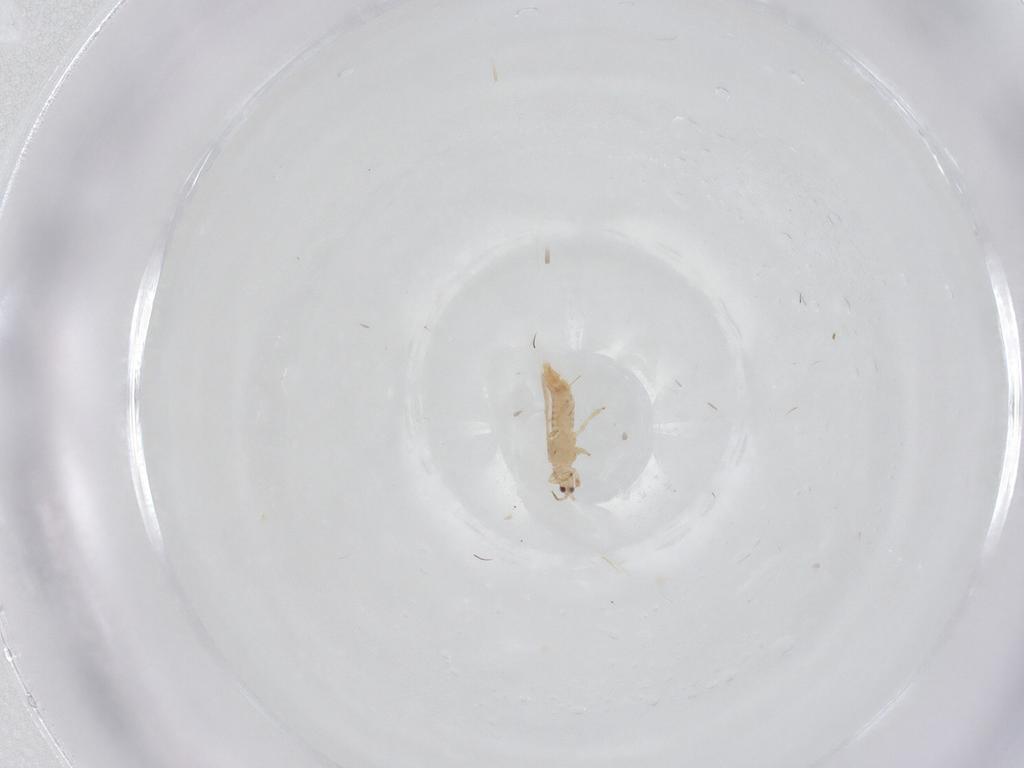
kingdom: Animalia
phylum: Arthropoda
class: Insecta
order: Thysanoptera
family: Thripidae
